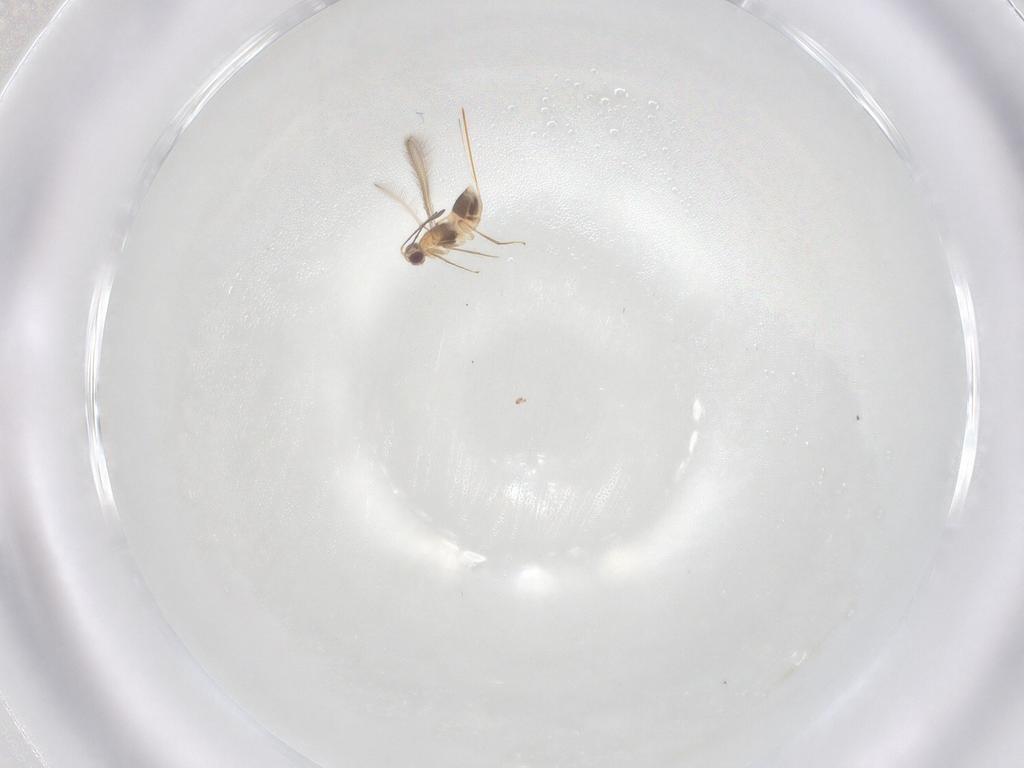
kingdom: Animalia
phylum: Arthropoda
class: Insecta
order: Hymenoptera
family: Mymaridae
